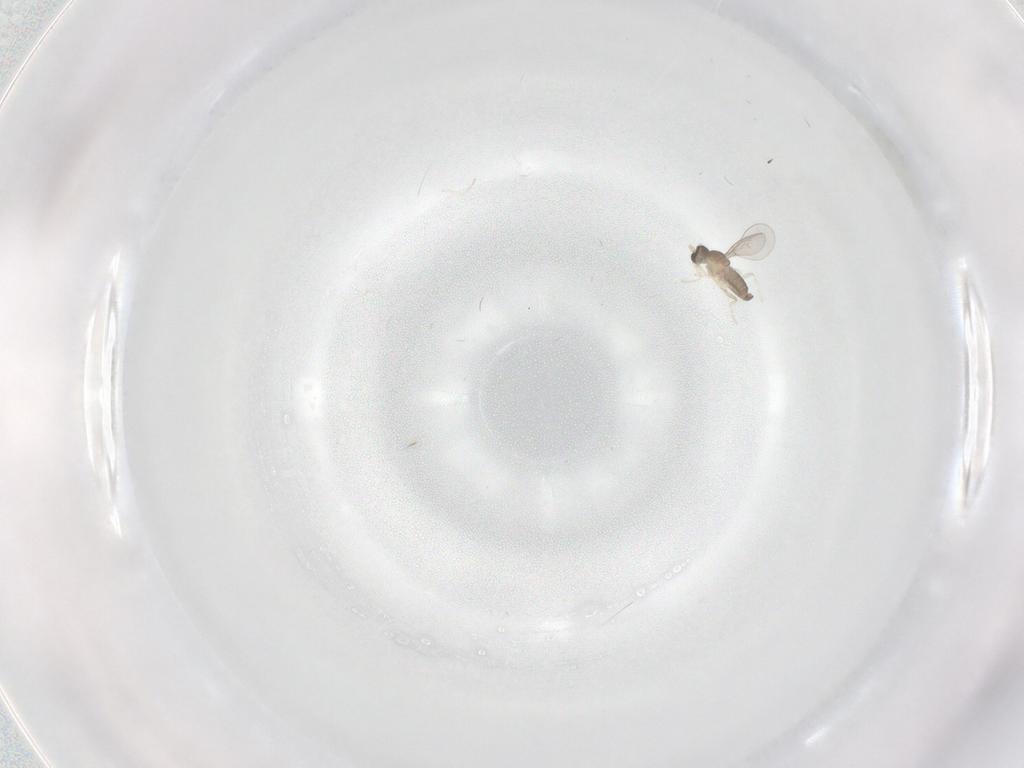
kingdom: Animalia
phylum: Arthropoda
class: Insecta
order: Diptera
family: Cecidomyiidae
